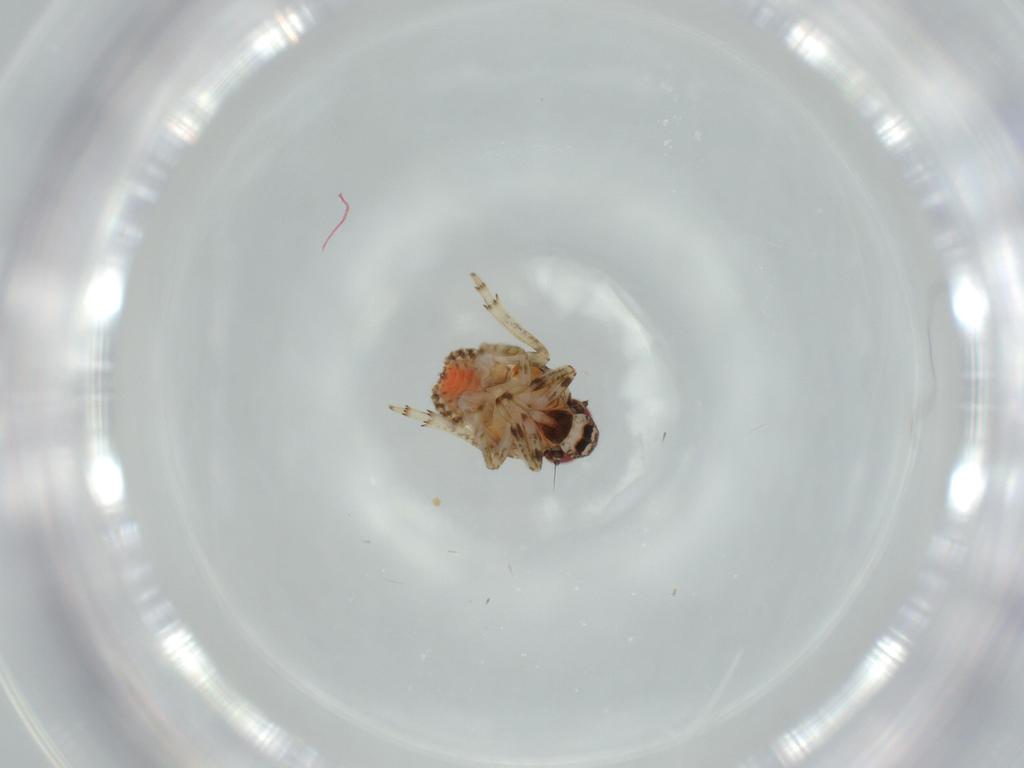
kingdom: Animalia
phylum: Arthropoda
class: Insecta
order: Hemiptera
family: Issidae
